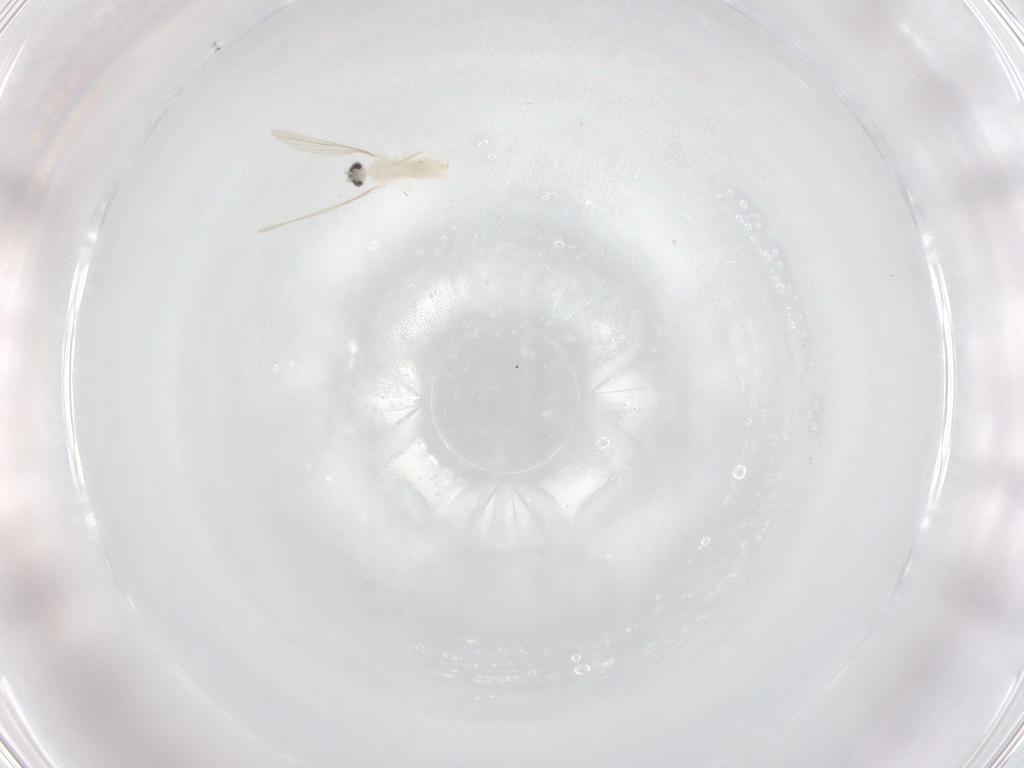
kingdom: Animalia
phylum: Arthropoda
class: Insecta
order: Diptera
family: Cecidomyiidae
